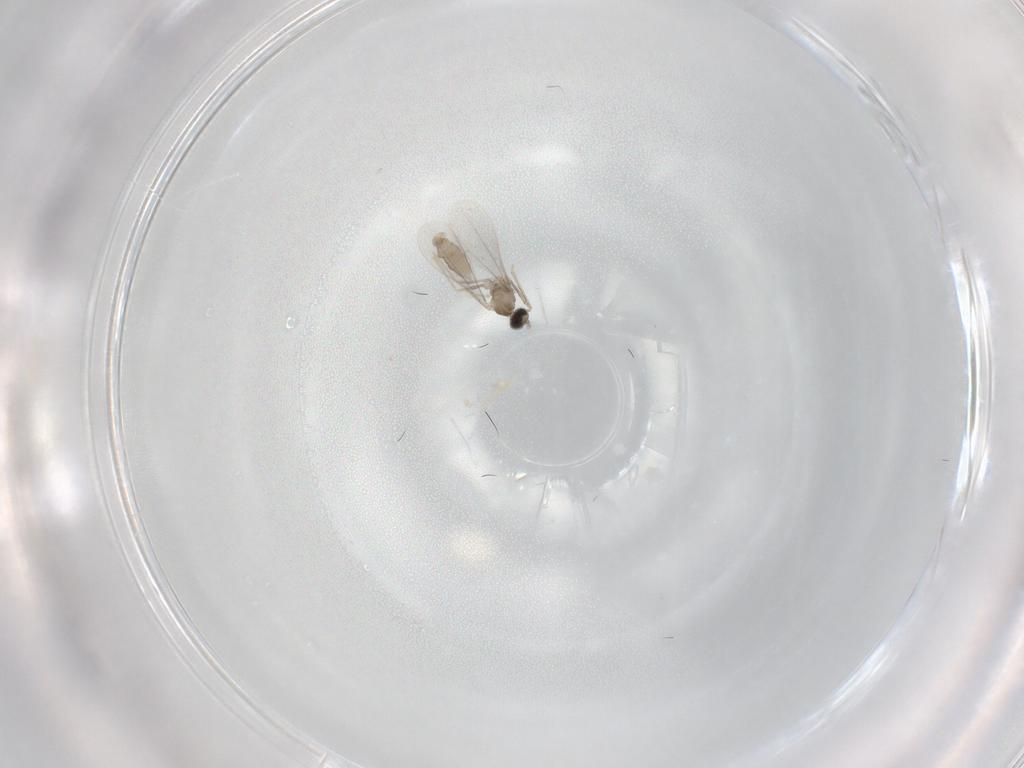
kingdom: Animalia
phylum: Arthropoda
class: Insecta
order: Diptera
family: Cecidomyiidae
